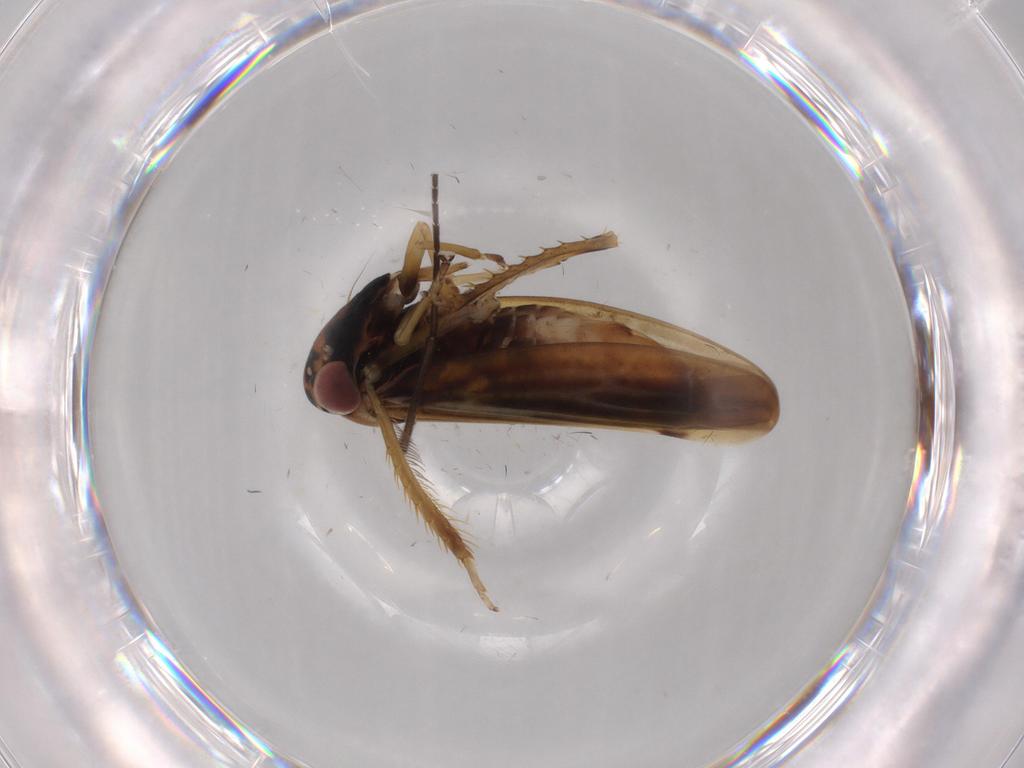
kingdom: Animalia
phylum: Arthropoda
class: Insecta
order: Hemiptera
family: Cicadellidae
